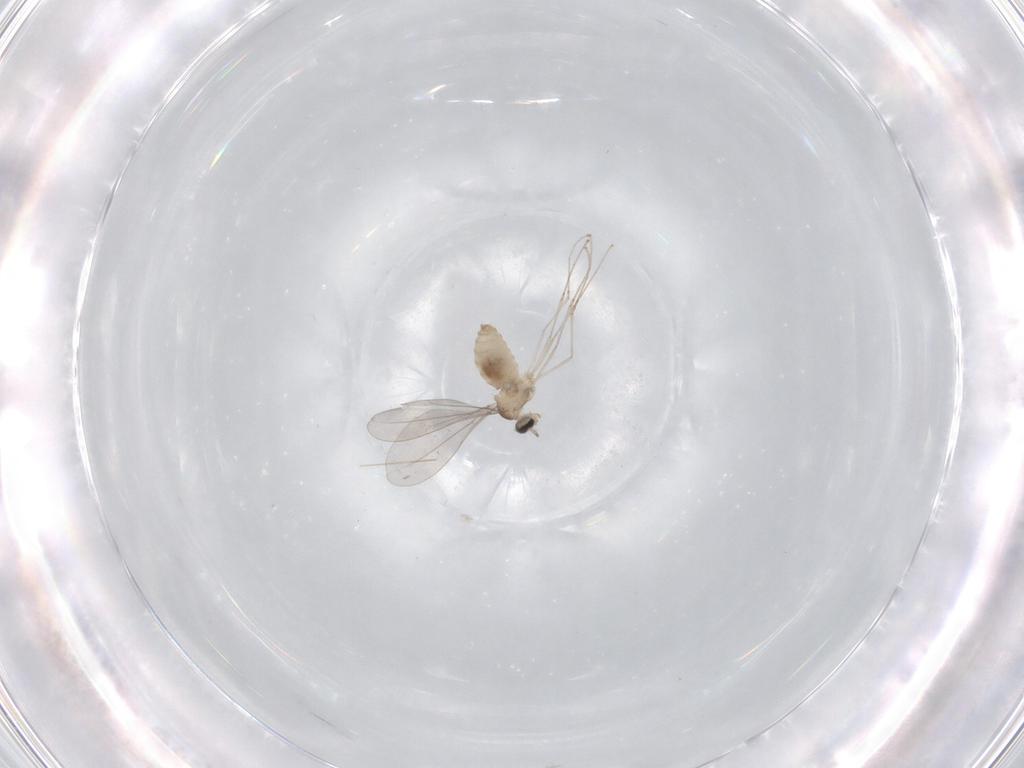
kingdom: Animalia
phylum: Arthropoda
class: Insecta
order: Diptera
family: Cecidomyiidae
